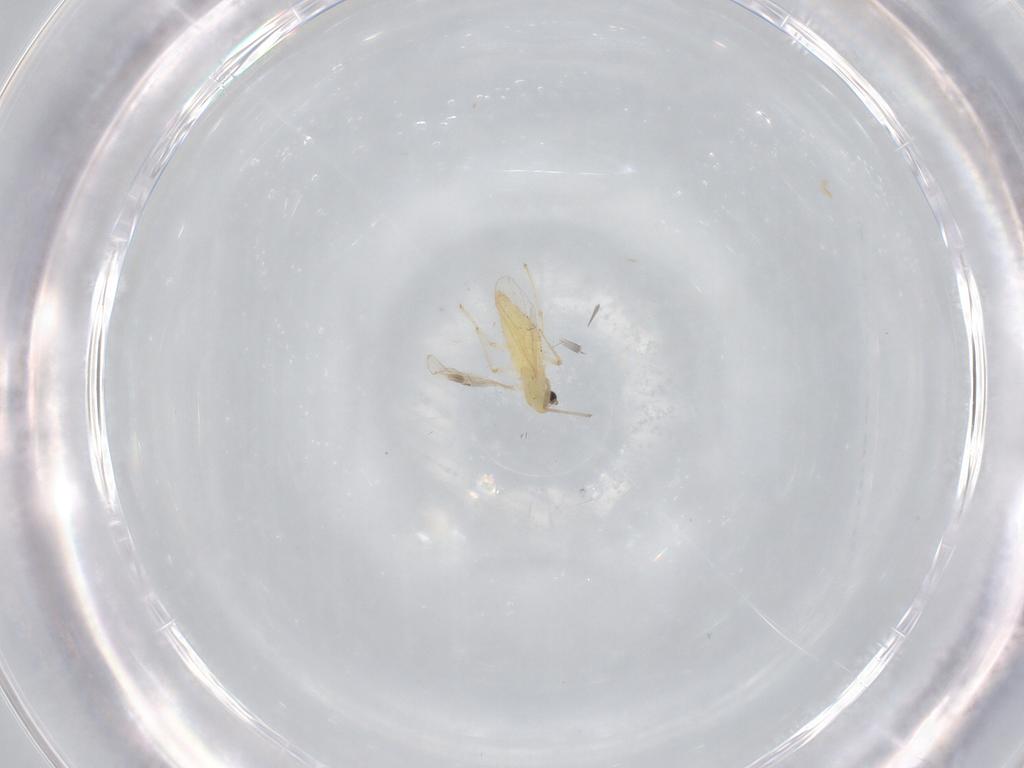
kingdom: Animalia
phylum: Arthropoda
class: Insecta
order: Diptera
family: Chironomidae
